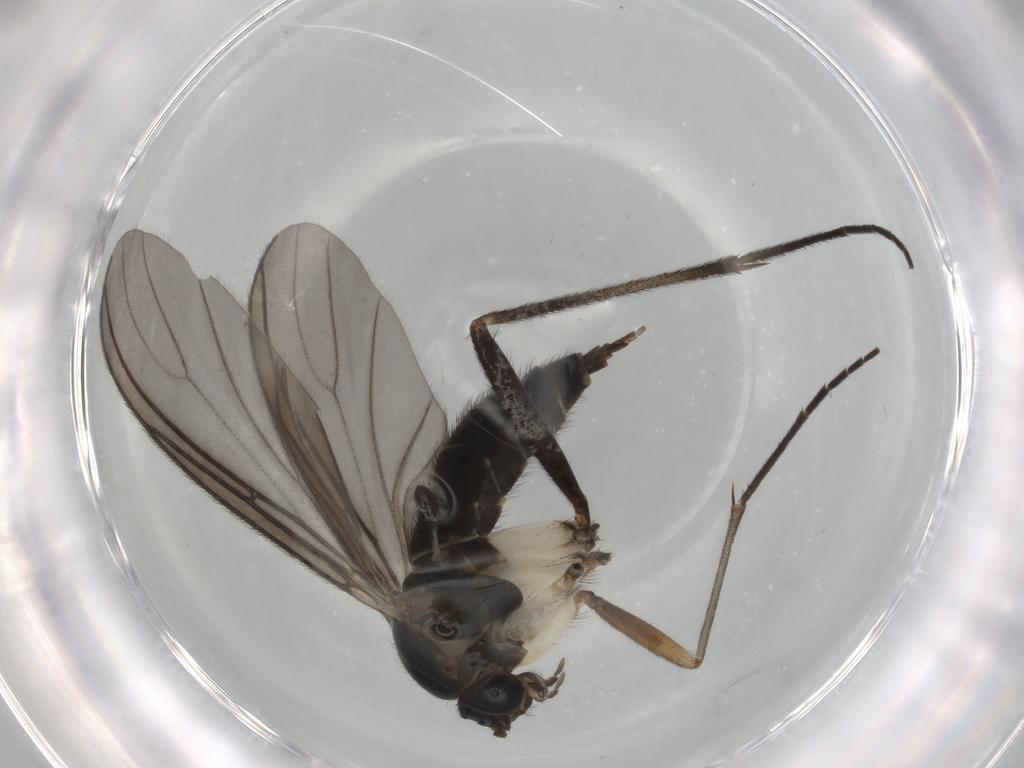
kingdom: Animalia
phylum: Arthropoda
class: Insecta
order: Diptera
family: Sciaridae
